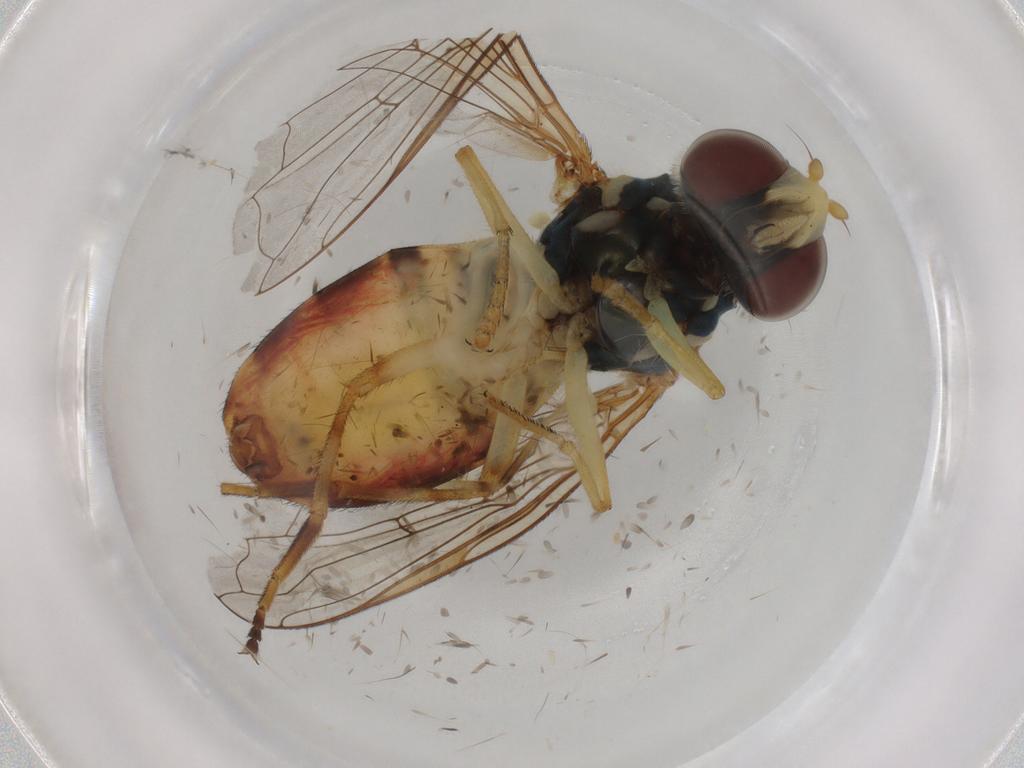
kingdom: Animalia
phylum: Arthropoda
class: Insecta
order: Diptera
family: Syrphidae
